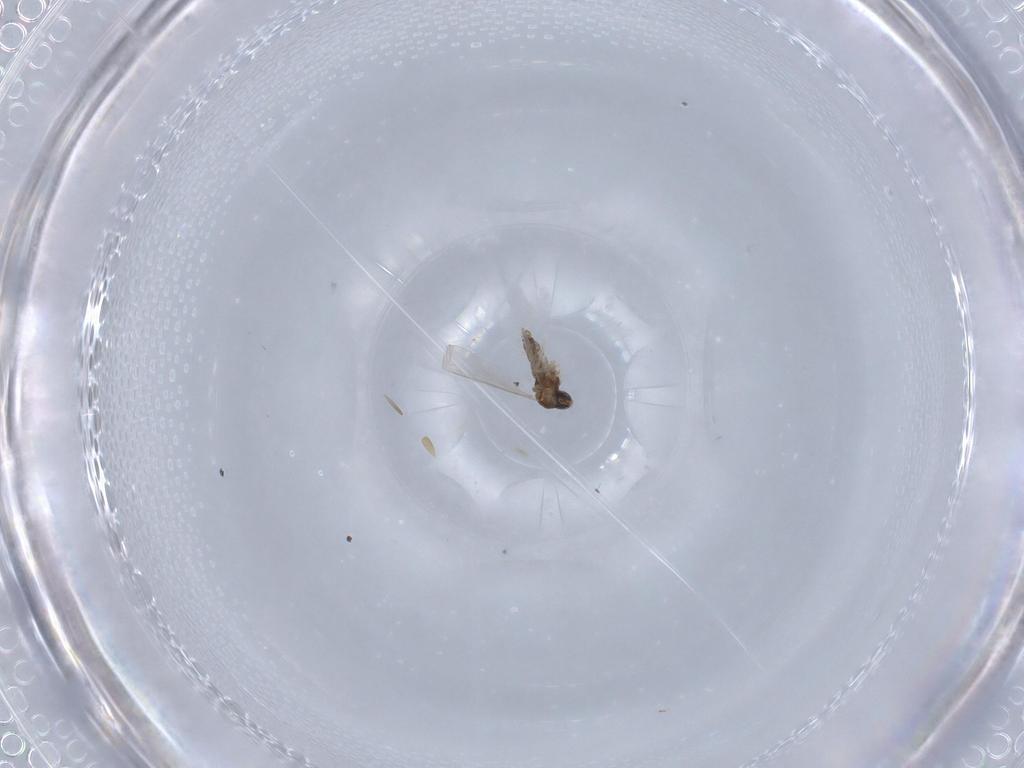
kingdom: Animalia
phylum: Arthropoda
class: Insecta
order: Diptera
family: Cecidomyiidae
